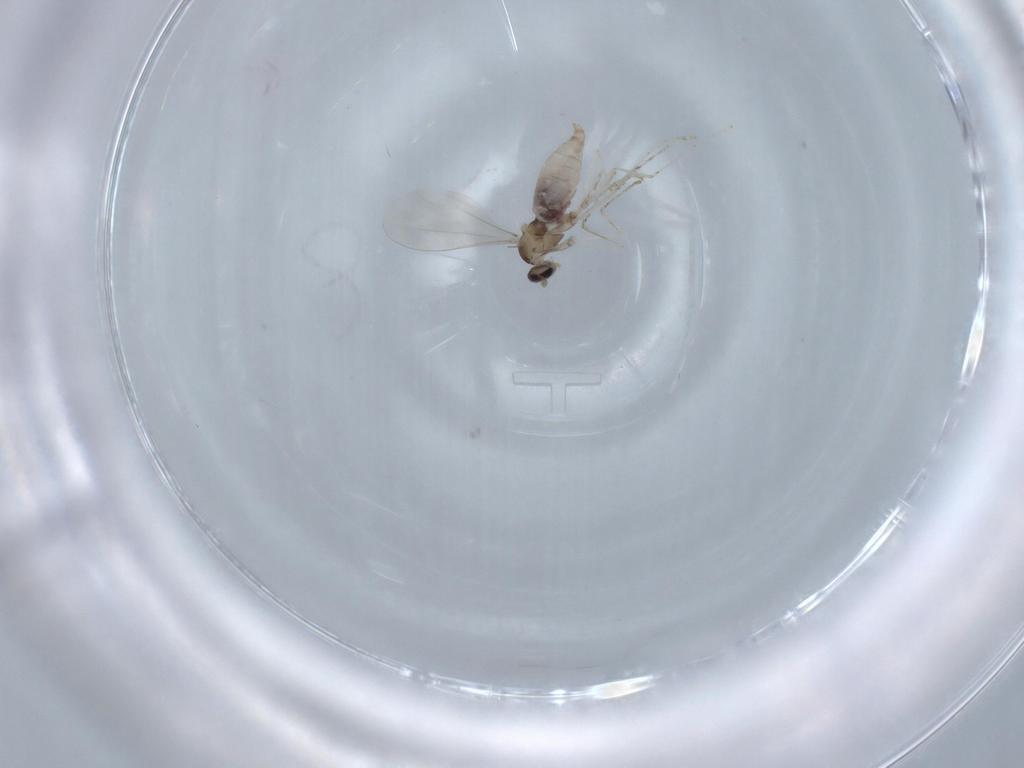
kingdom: Animalia
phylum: Arthropoda
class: Insecta
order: Diptera
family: Cecidomyiidae
